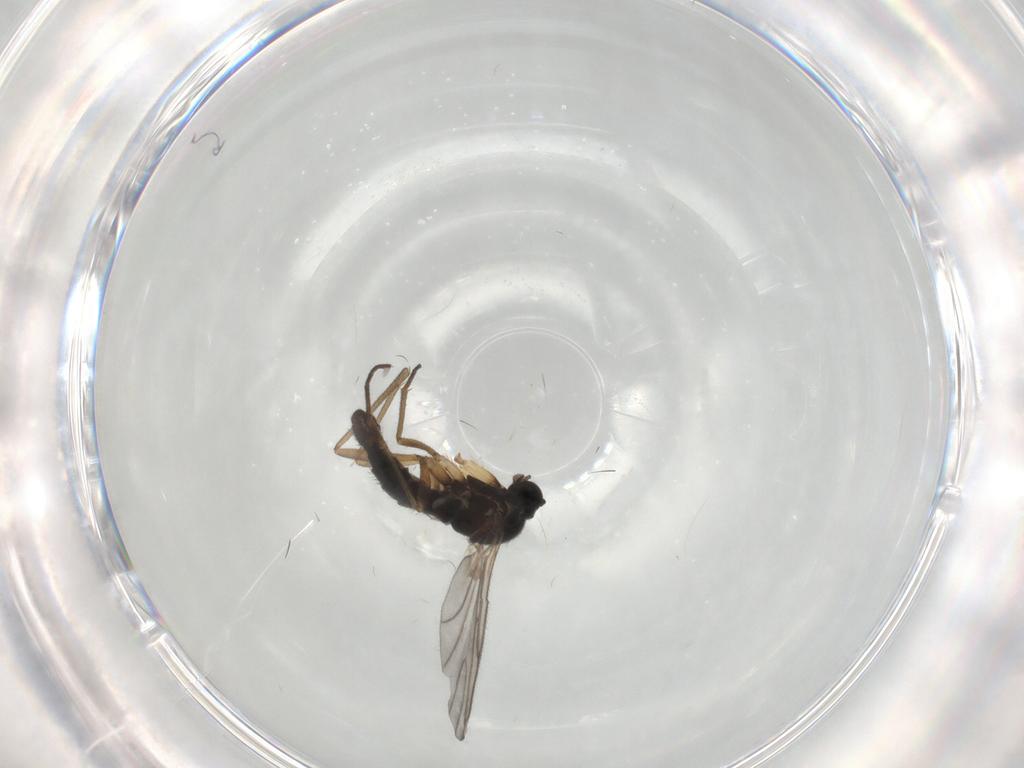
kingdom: Animalia
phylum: Arthropoda
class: Insecta
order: Diptera
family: Sciaridae
